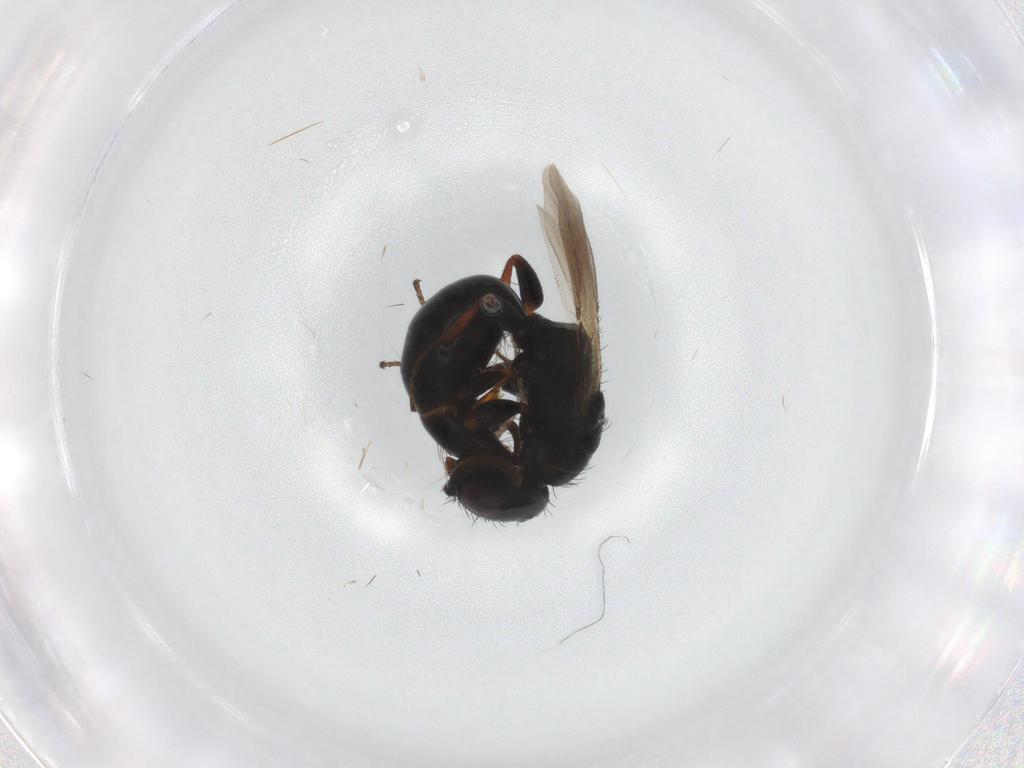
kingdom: Animalia
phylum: Arthropoda
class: Insecta
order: Hymenoptera
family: Bethylidae
